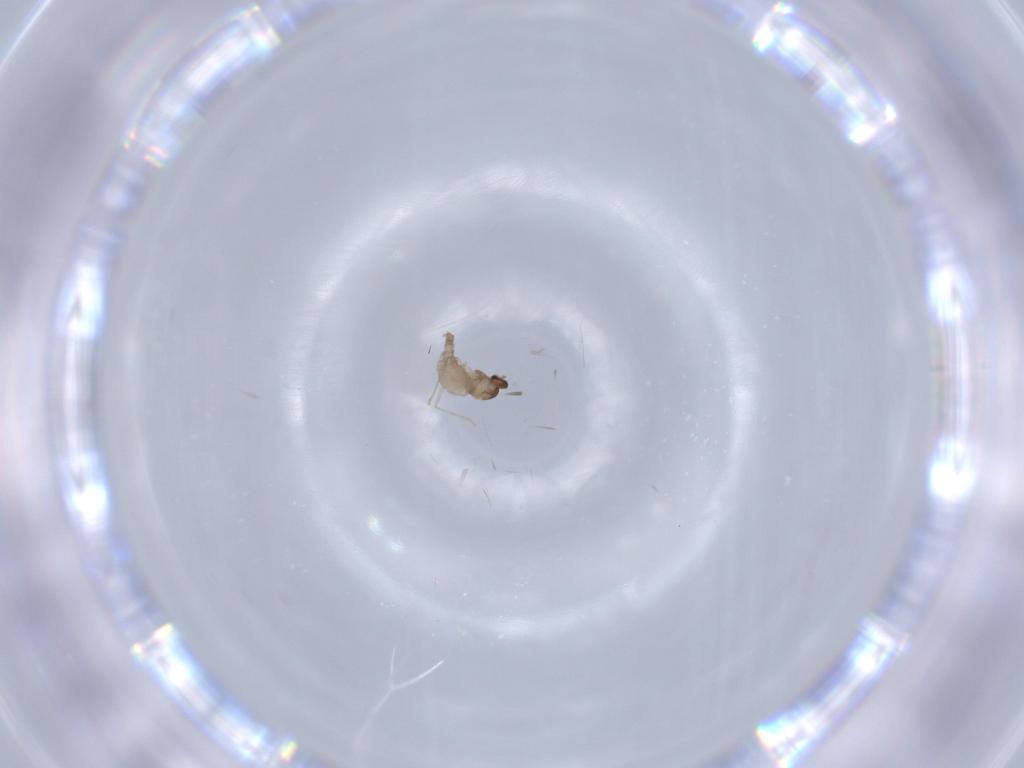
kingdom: Animalia
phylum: Arthropoda
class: Insecta
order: Diptera
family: Cecidomyiidae
